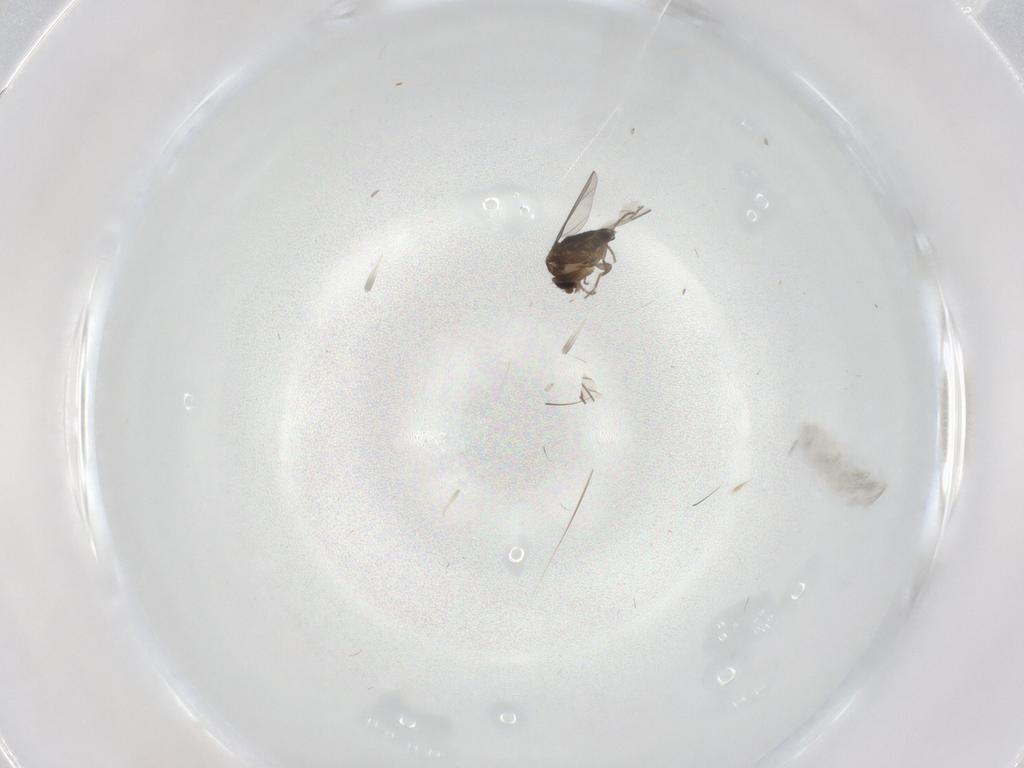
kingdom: Animalia
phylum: Arthropoda
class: Insecta
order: Diptera
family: Phoridae
